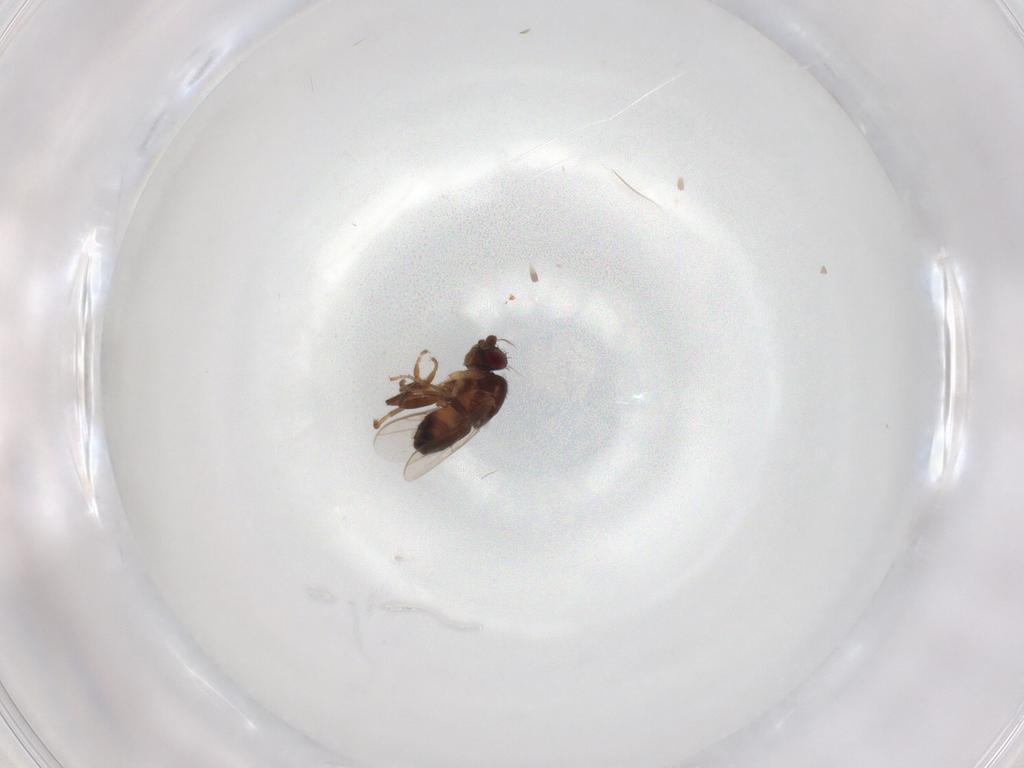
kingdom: Animalia
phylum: Arthropoda
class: Insecta
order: Diptera
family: Sphaeroceridae
